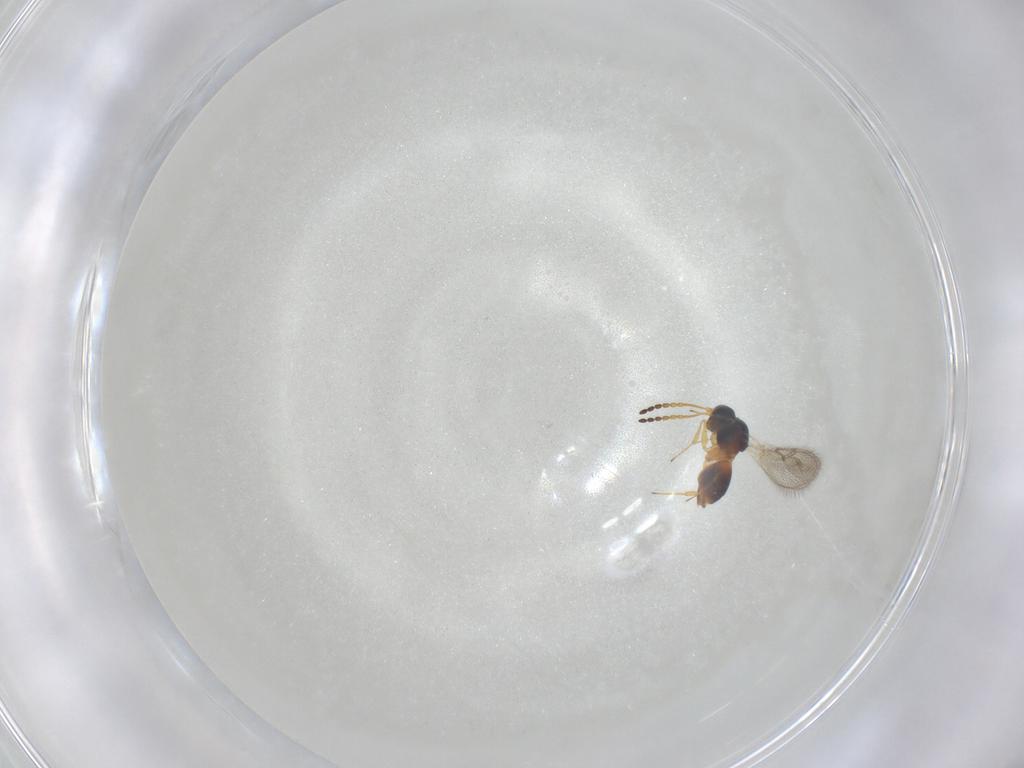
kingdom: Animalia
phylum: Arthropoda
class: Insecta
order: Hymenoptera
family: Figitidae
